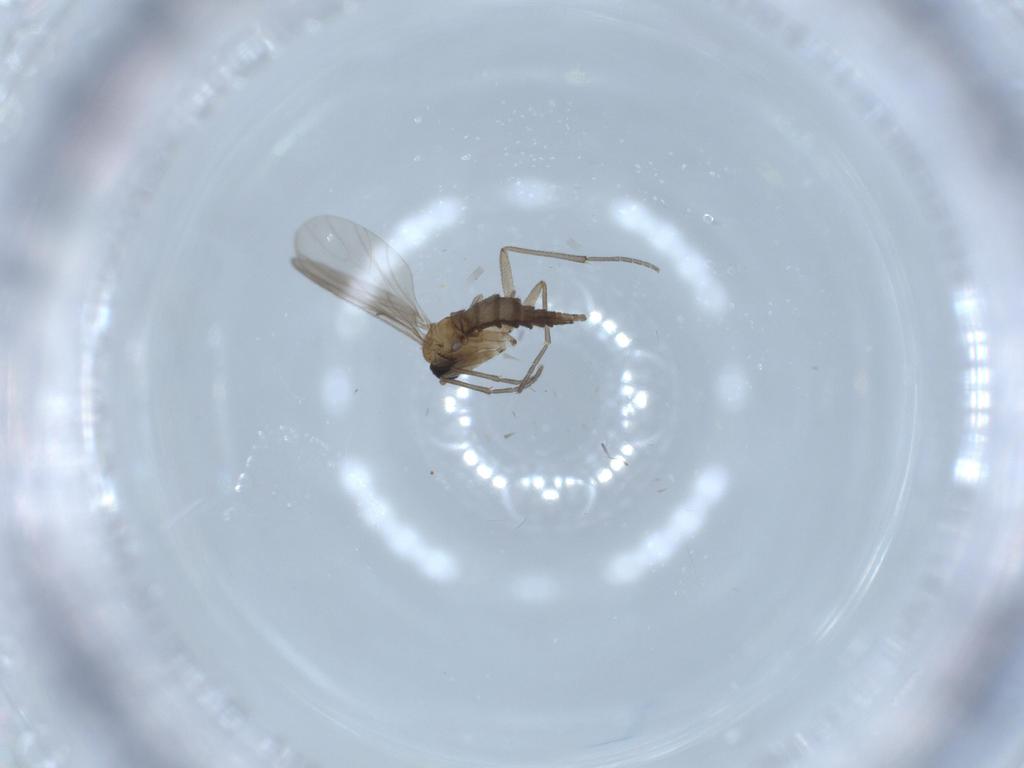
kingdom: Animalia
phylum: Arthropoda
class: Insecta
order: Diptera
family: Sciaridae
